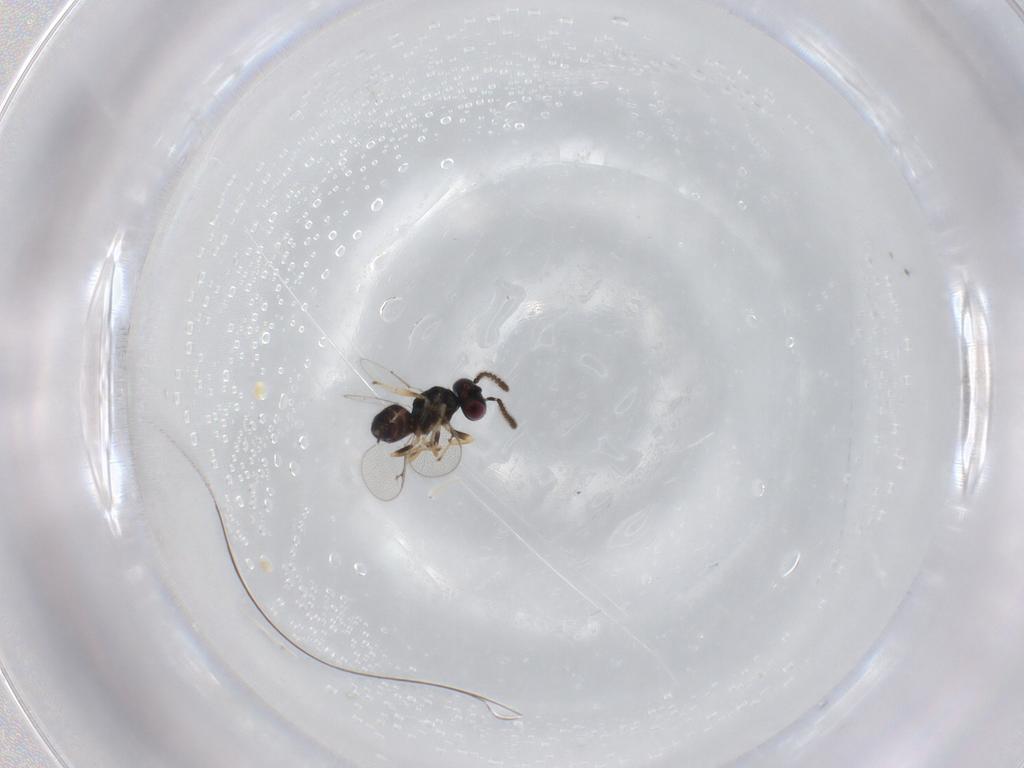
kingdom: Animalia
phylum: Arthropoda
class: Insecta
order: Hymenoptera
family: Pteromalidae
